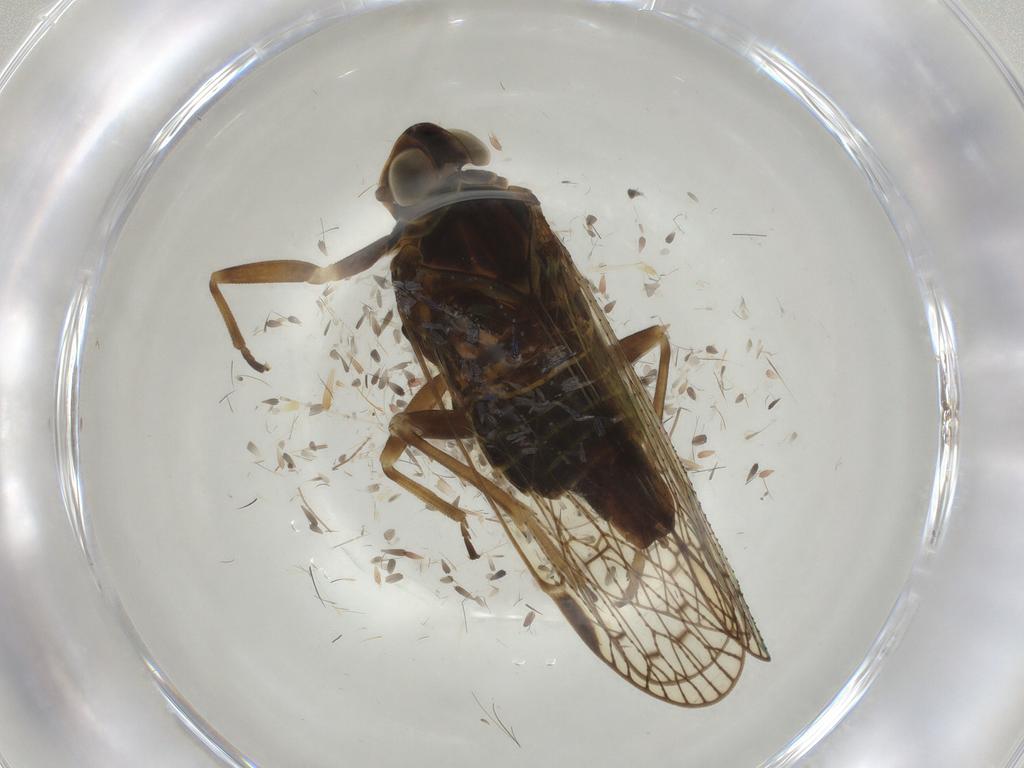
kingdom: Animalia
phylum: Arthropoda
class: Insecta
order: Hemiptera
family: Cixiidae
